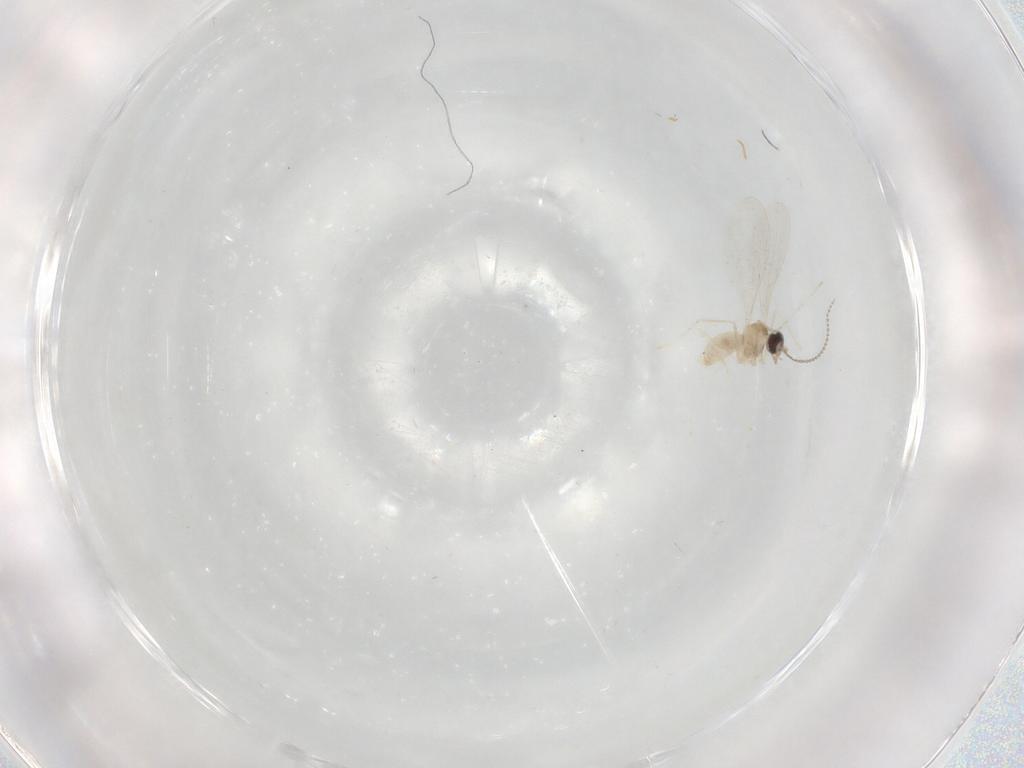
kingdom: Animalia
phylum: Arthropoda
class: Insecta
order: Diptera
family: Cecidomyiidae
